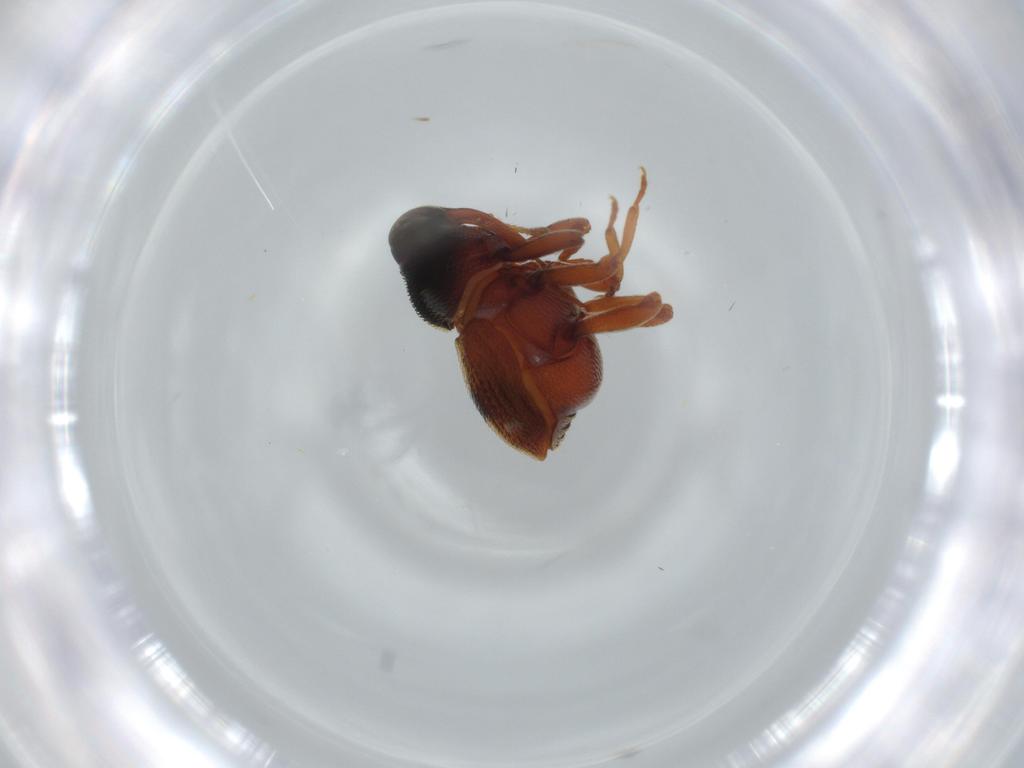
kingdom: Animalia
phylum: Arthropoda
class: Insecta
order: Coleoptera
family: Curculionidae
